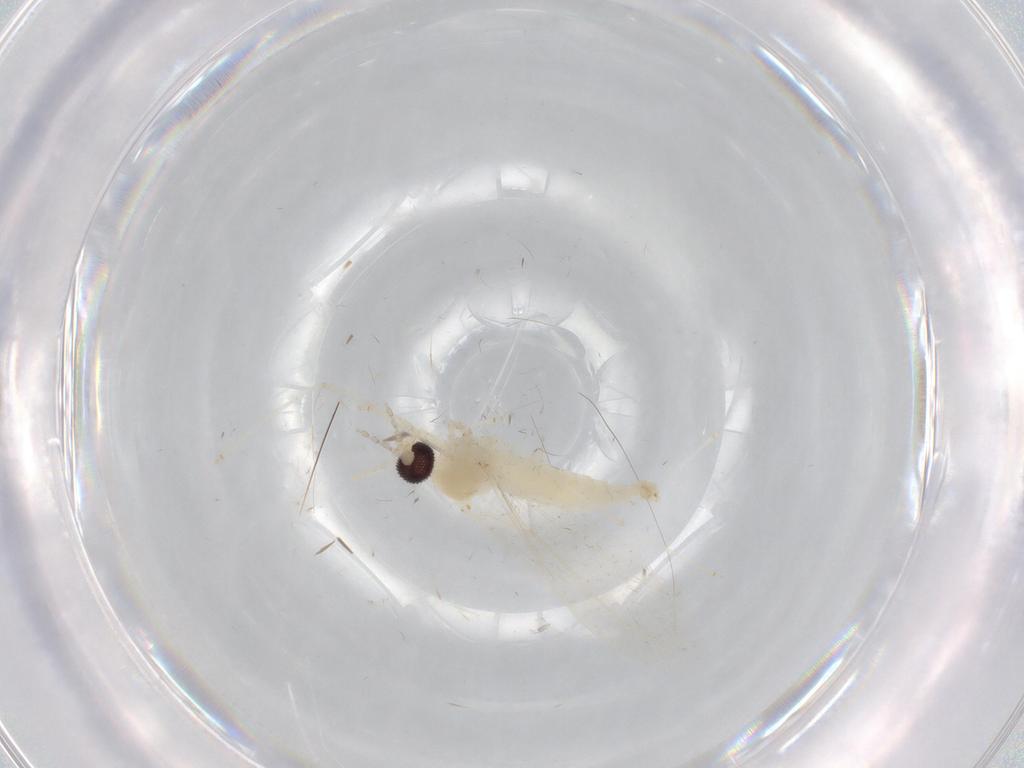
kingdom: Animalia
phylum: Arthropoda
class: Insecta
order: Diptera
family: Cecidomyiidae
